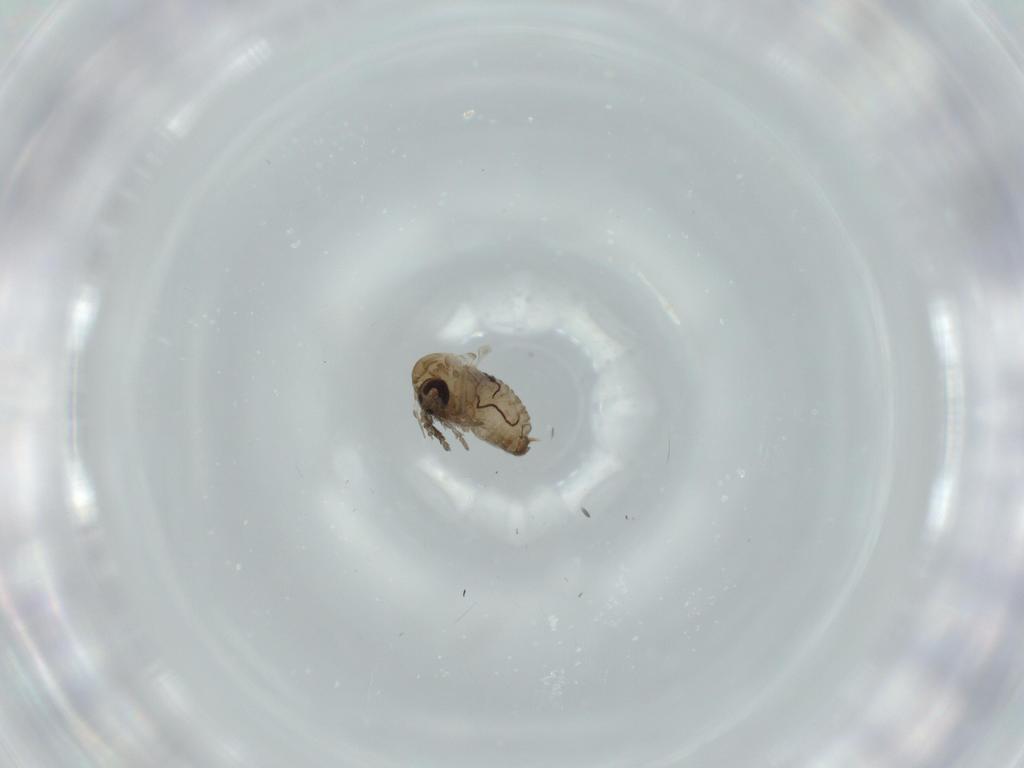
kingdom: Animalia
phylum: Arthropoda
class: Insecta
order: Diptera
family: Psychodidae
